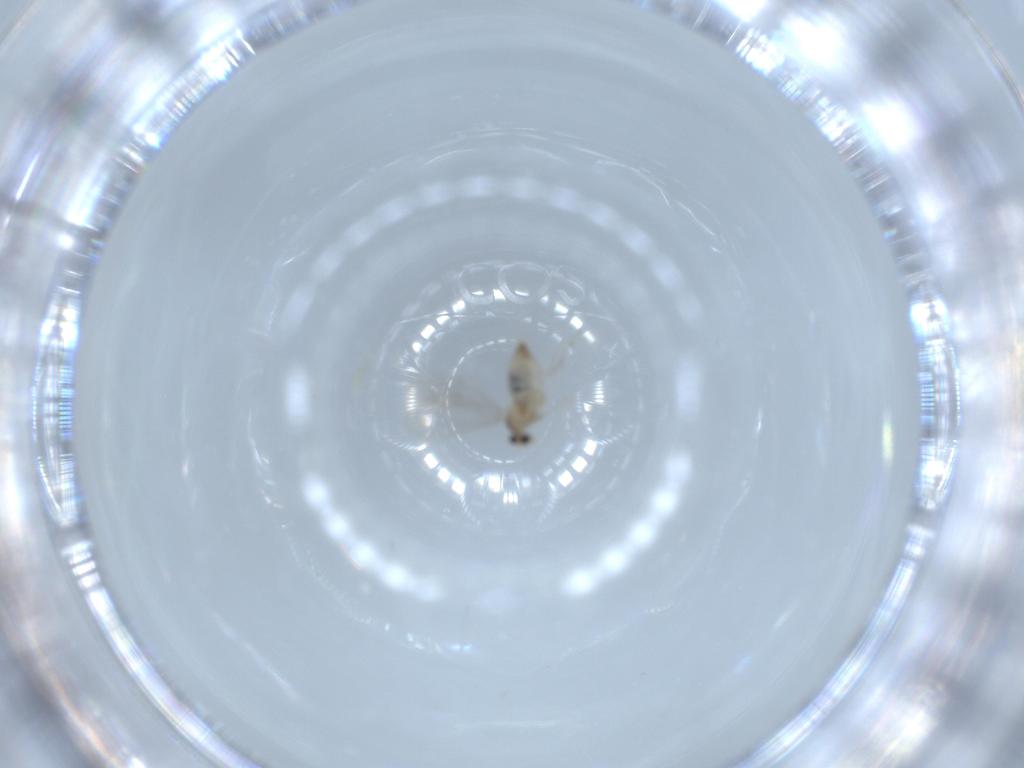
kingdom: Animalia
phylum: Arthropoda
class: Insecta
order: Diptera
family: Cecidomyiidae
